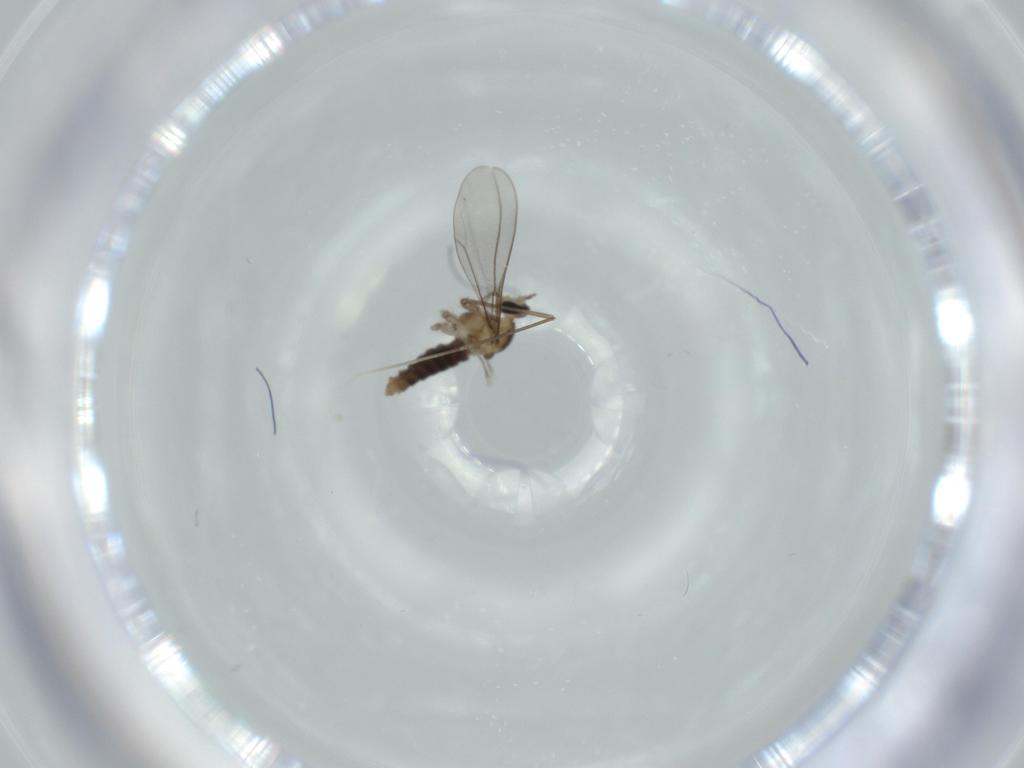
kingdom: Animalia
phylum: Arthropoda
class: Insecta
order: Diptera
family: Cecidomyiidae
